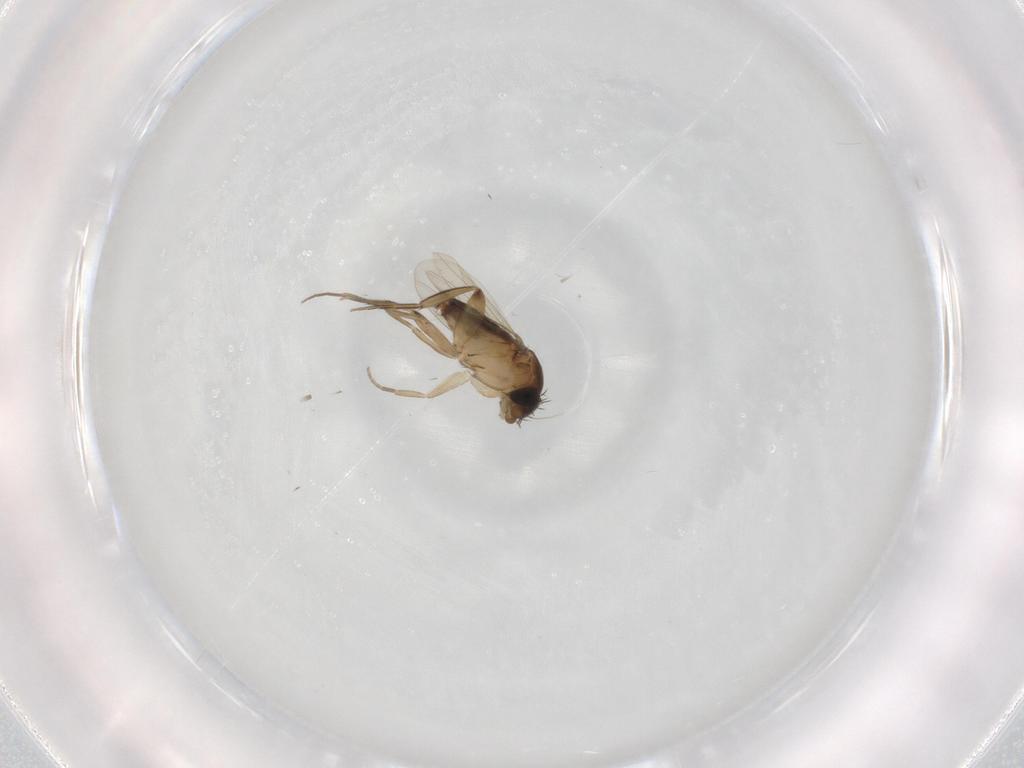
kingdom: Animalia
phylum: Arthropoda
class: Insecta
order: Diptera
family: Phoridae
